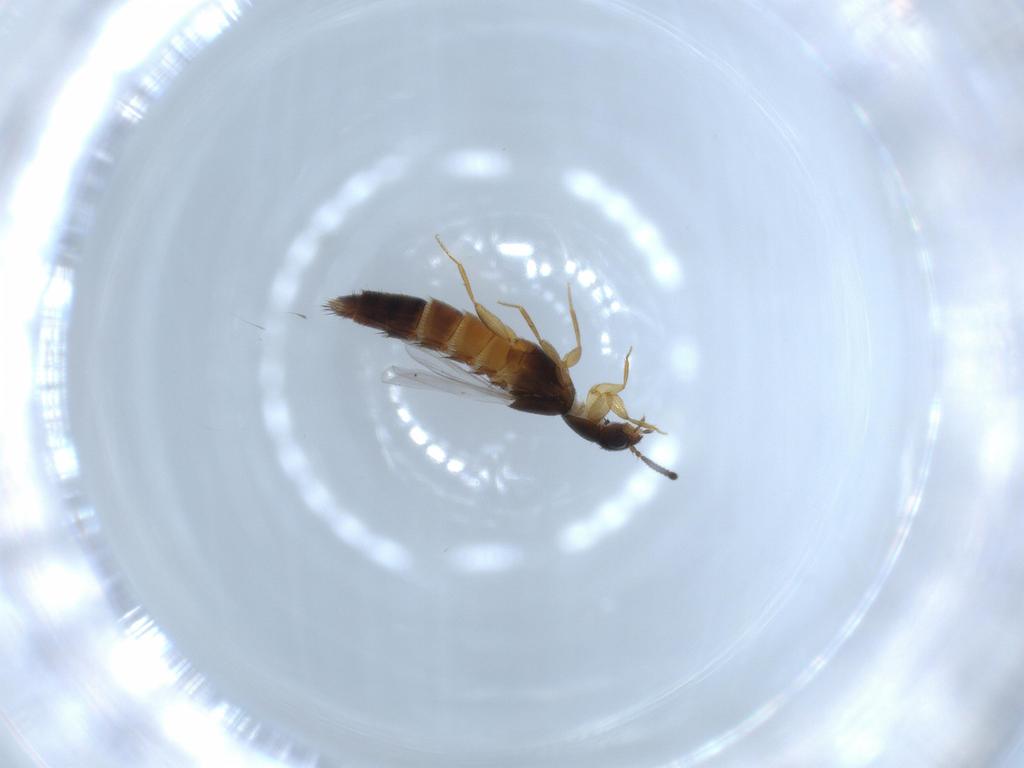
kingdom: Animalia
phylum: Arthropoda
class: Insecta
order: Coleoptera
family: Staphylinidae
